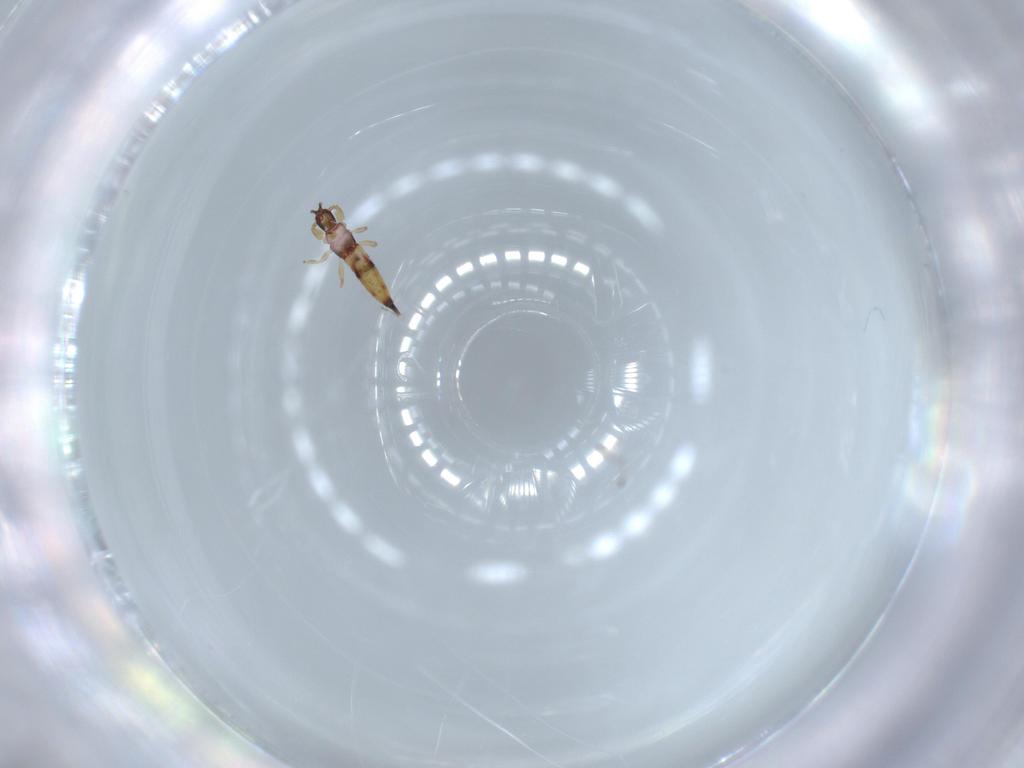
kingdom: Animalia
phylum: Arthropoda
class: Insecta
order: Thysanoptera
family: Phlaeothripidae
